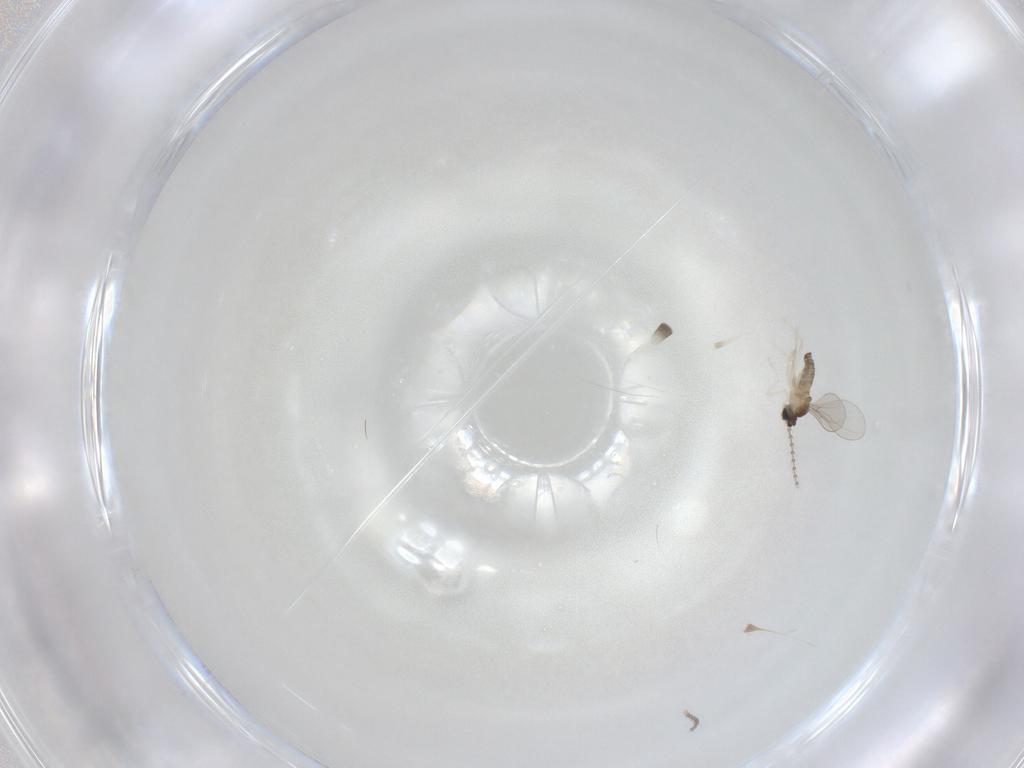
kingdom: Animalia
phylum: Arthropoda
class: Insecta
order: Diptera
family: Cecidomyiidae
